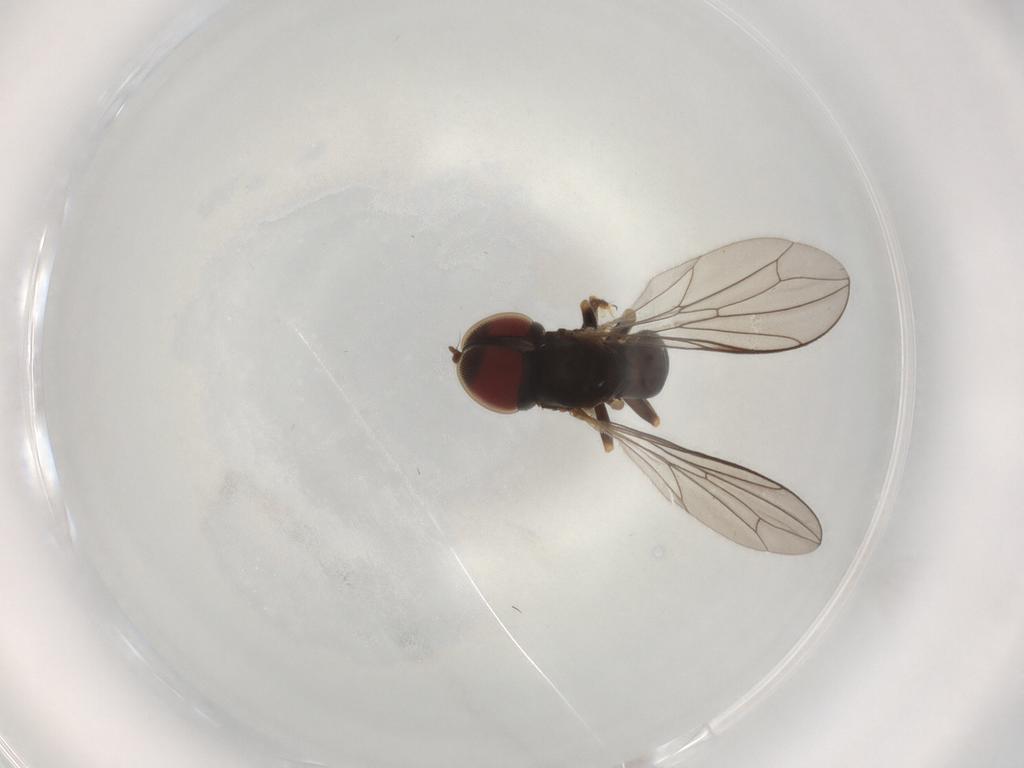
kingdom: Animalia
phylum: Arthropoda
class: Insecta
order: Diptera
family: Pipunculidae
